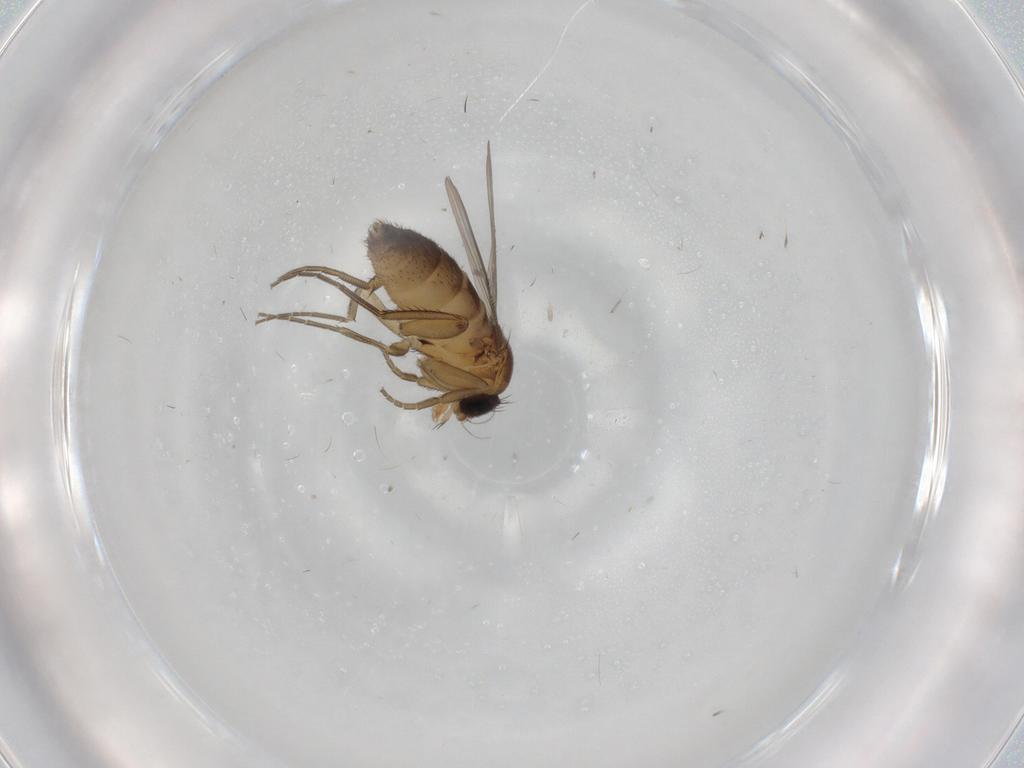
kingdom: Animalia
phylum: Arthropoda
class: Insecta
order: Diptera
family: Phoridae
